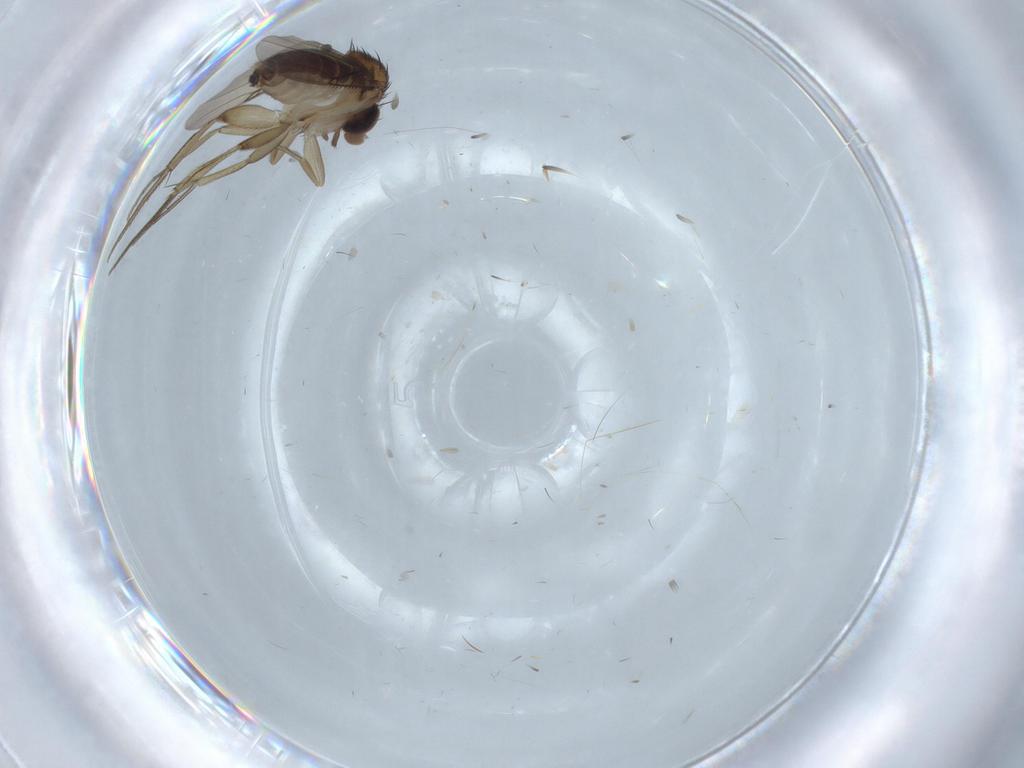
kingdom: Animalia
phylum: Arthropoda
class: Insecta
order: Diptera
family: Phoridae
